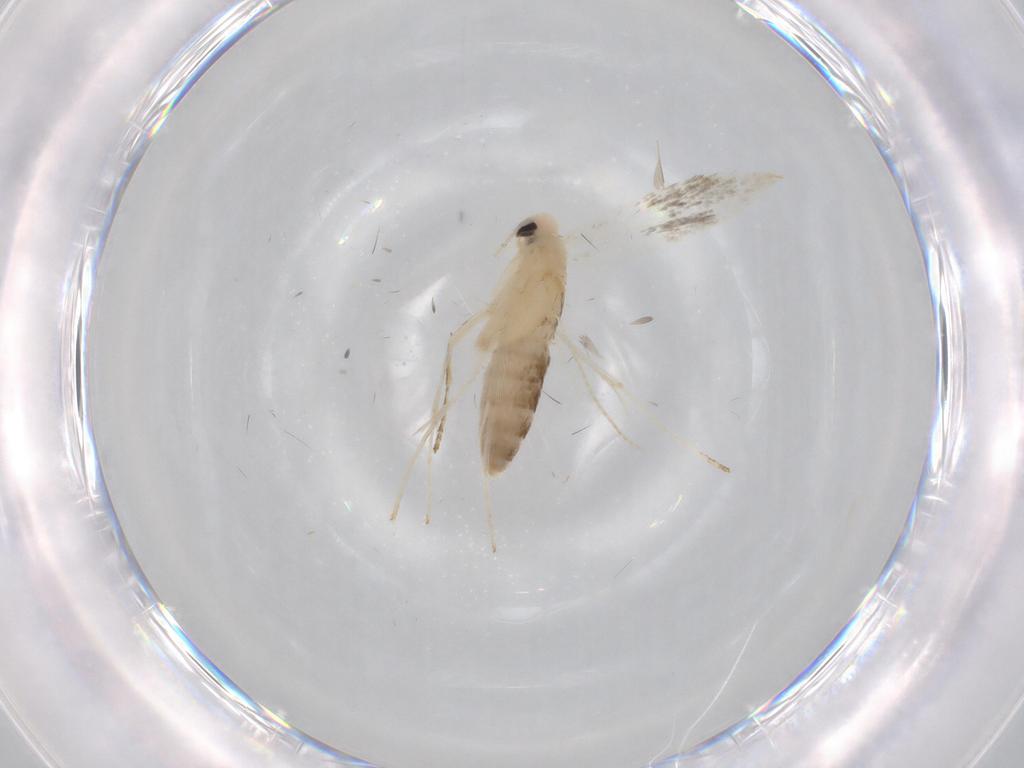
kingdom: Animalia
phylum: Arthropoda
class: Insecta
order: Lepidoptera
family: Gracillariidae
